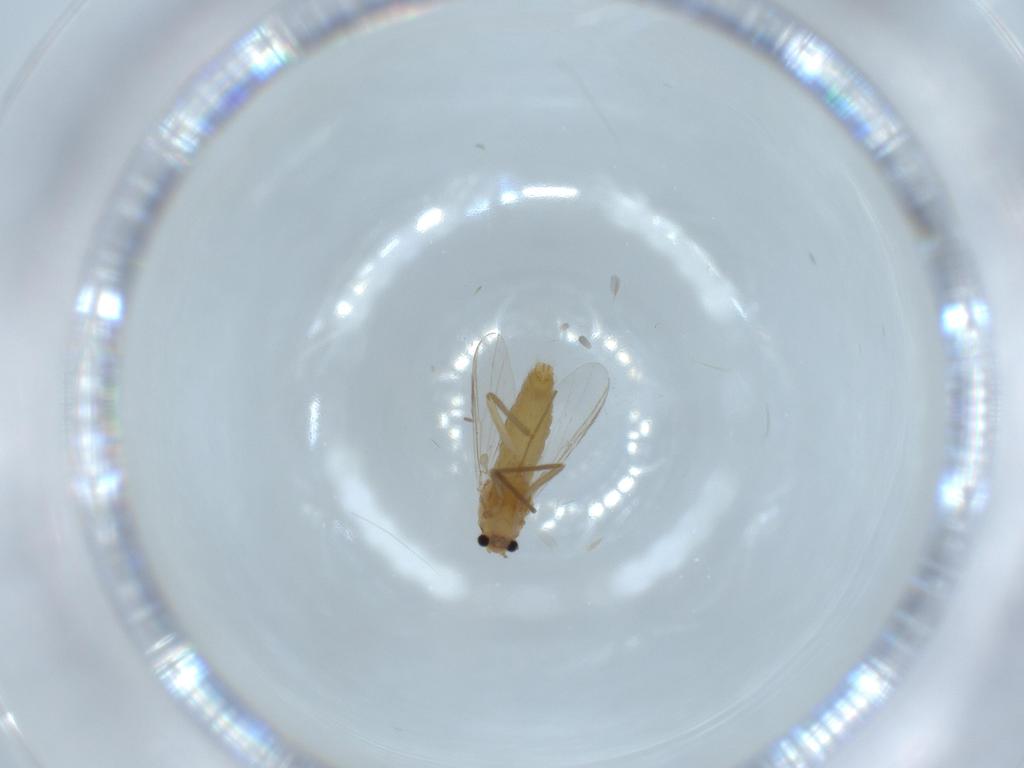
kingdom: Animalia
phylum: Arthropoda
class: Insecta
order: Diptera
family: Chironomidae
